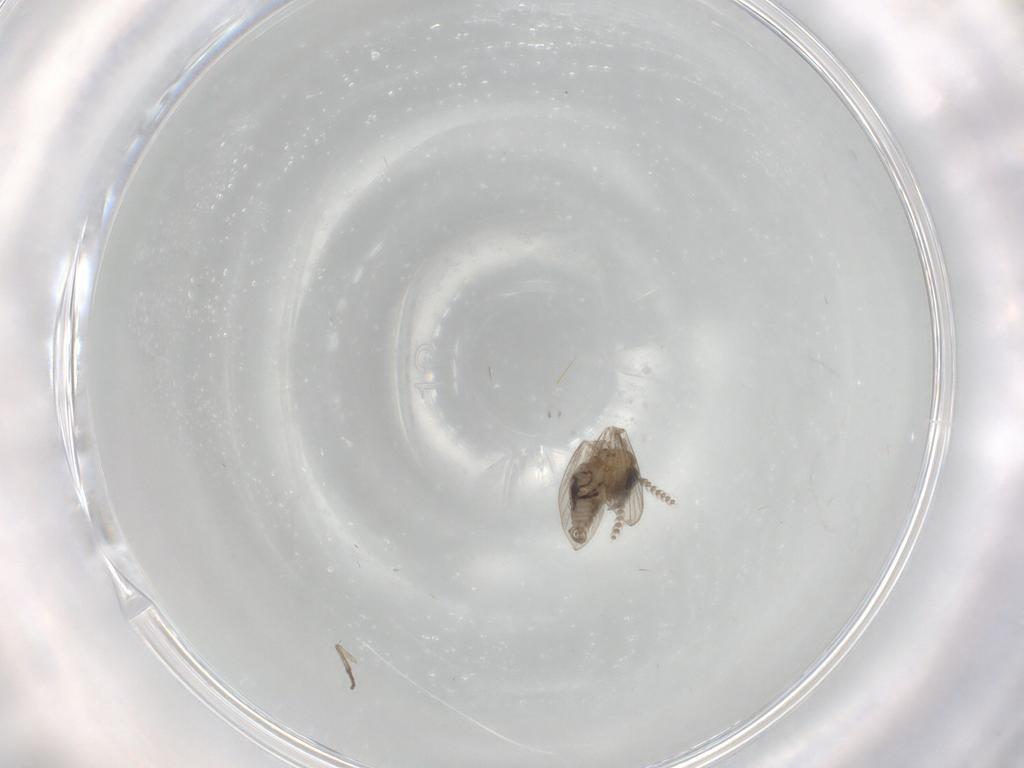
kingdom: Animalia
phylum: Arthropoda
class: Insecta
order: Diptera
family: Psychodidae
